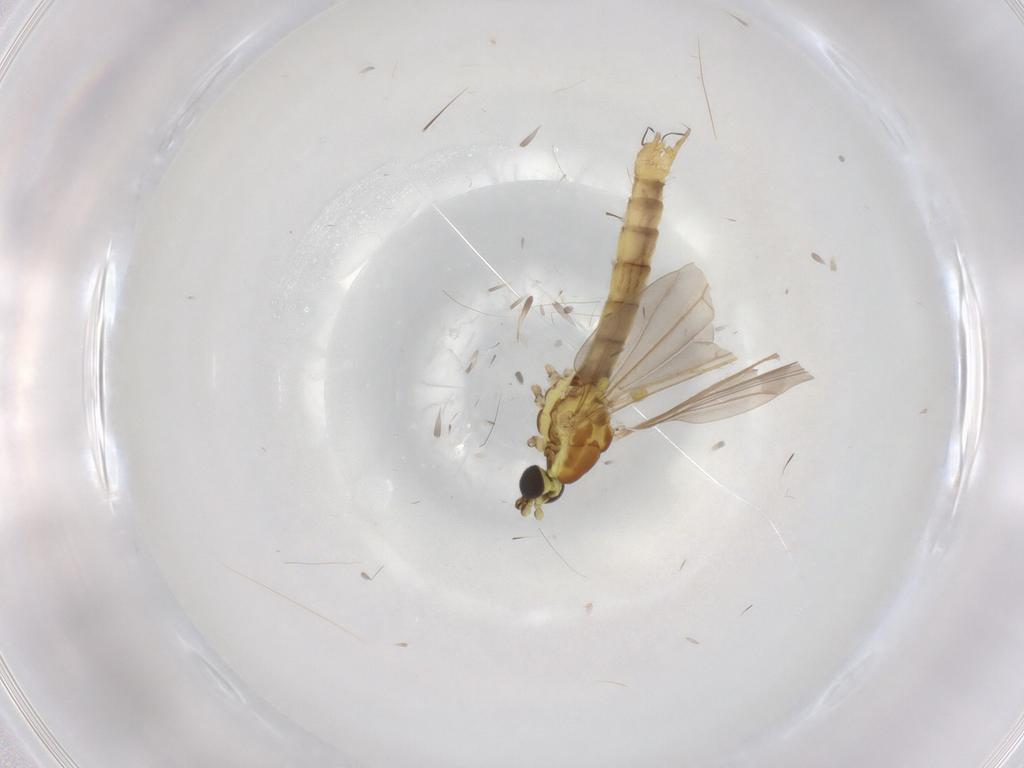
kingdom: Animalia
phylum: Arthropoda
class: Insecta
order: Diptera
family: Limoniidae
